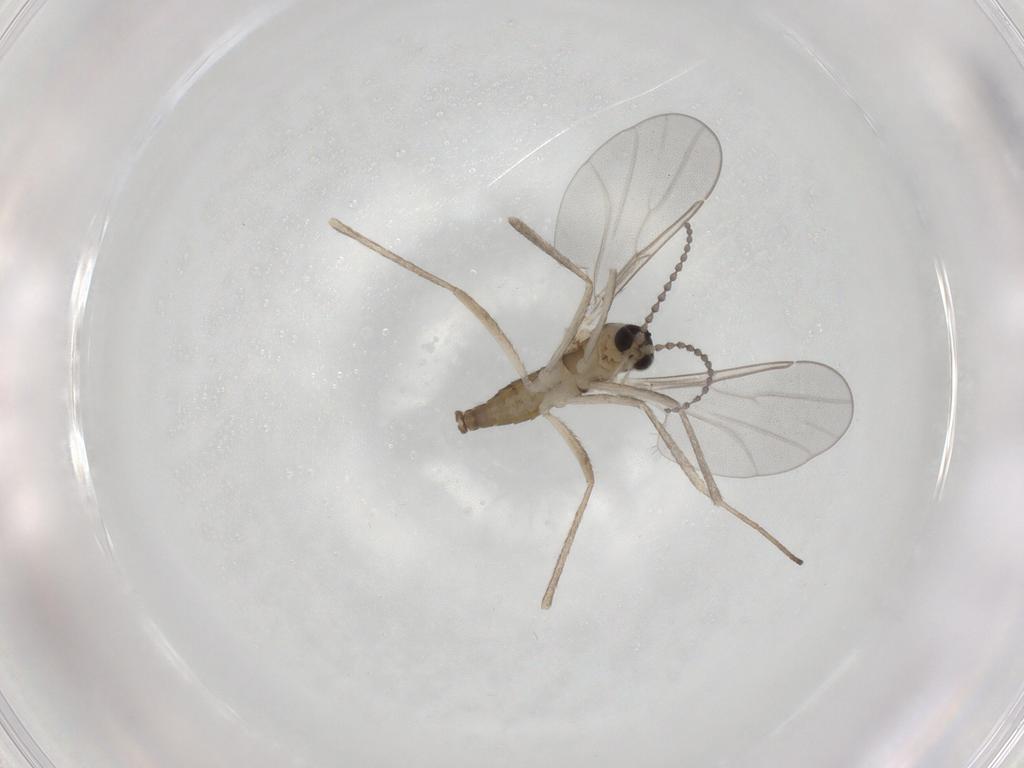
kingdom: Animalia
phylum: Arthropoda
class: Insecta
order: Diptera
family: Cecidomyiidae
